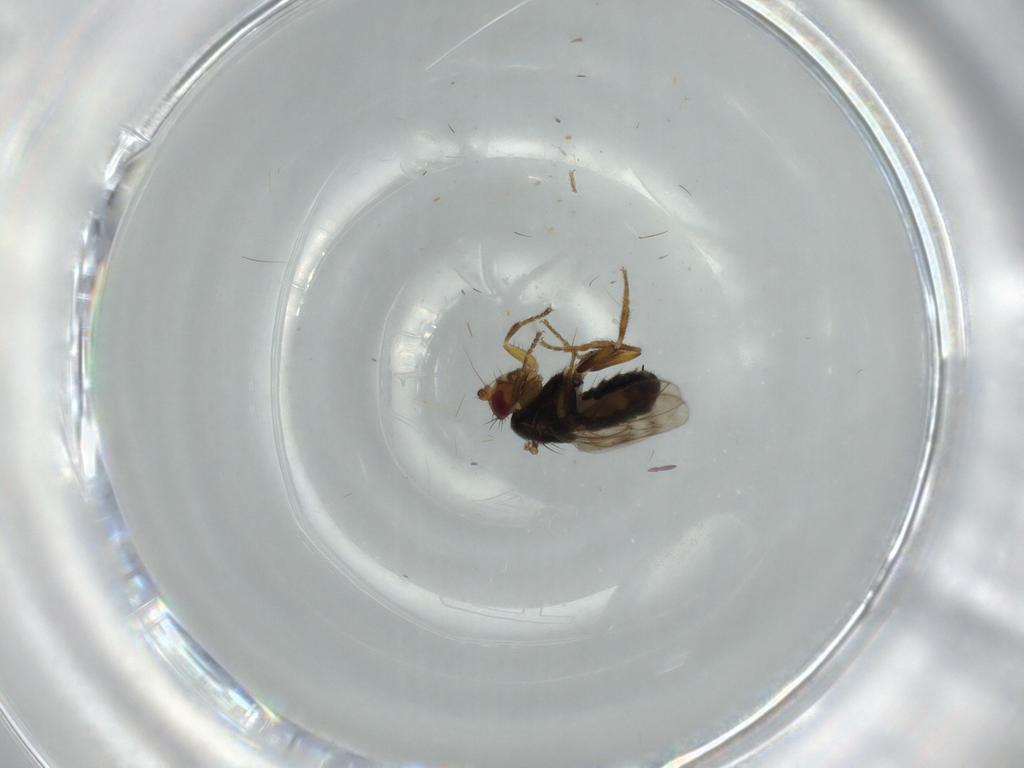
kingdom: Animalia
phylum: Arthropoda
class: Insecta
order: Diptera
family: Sphaeroceridae
